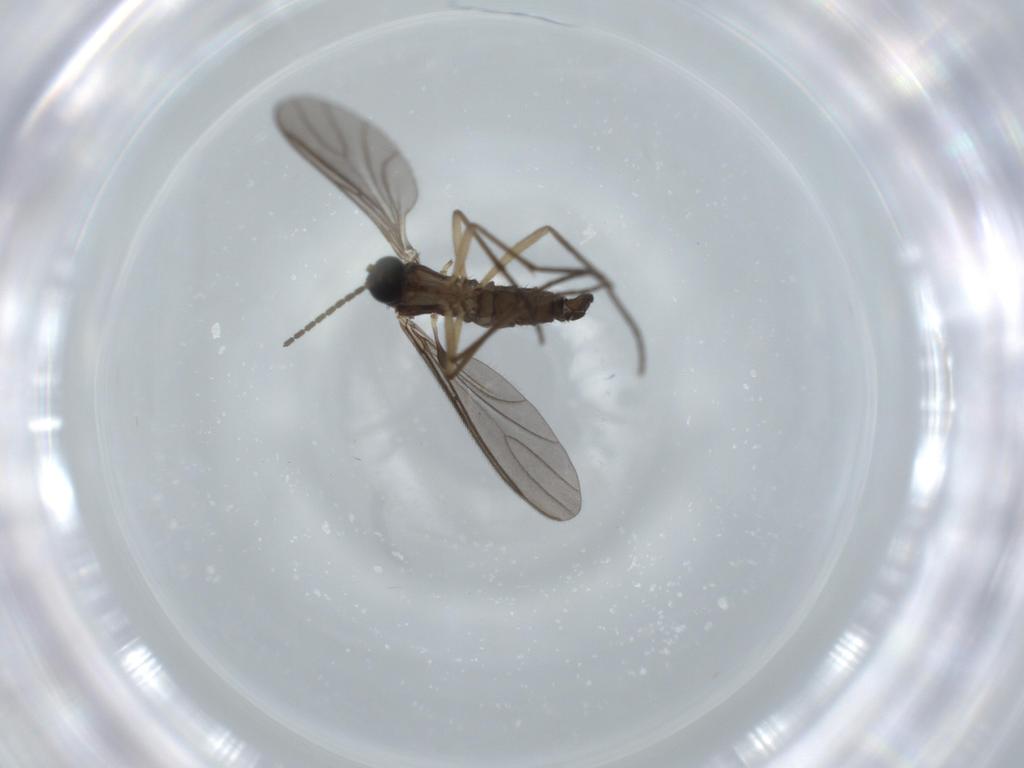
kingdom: Animalia
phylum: Arthropoda
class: Insecta
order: Diptera
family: Sciaridae
